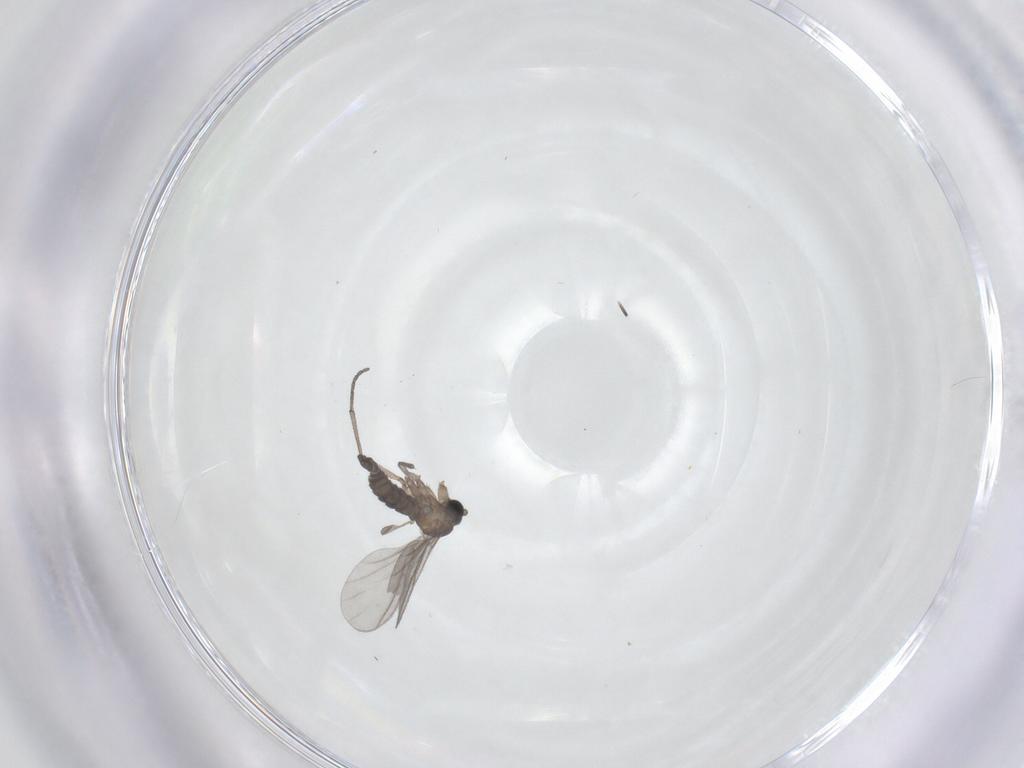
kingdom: Animalia
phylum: Arthropoda
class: Insecta
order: Diptera
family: Sciaridae
